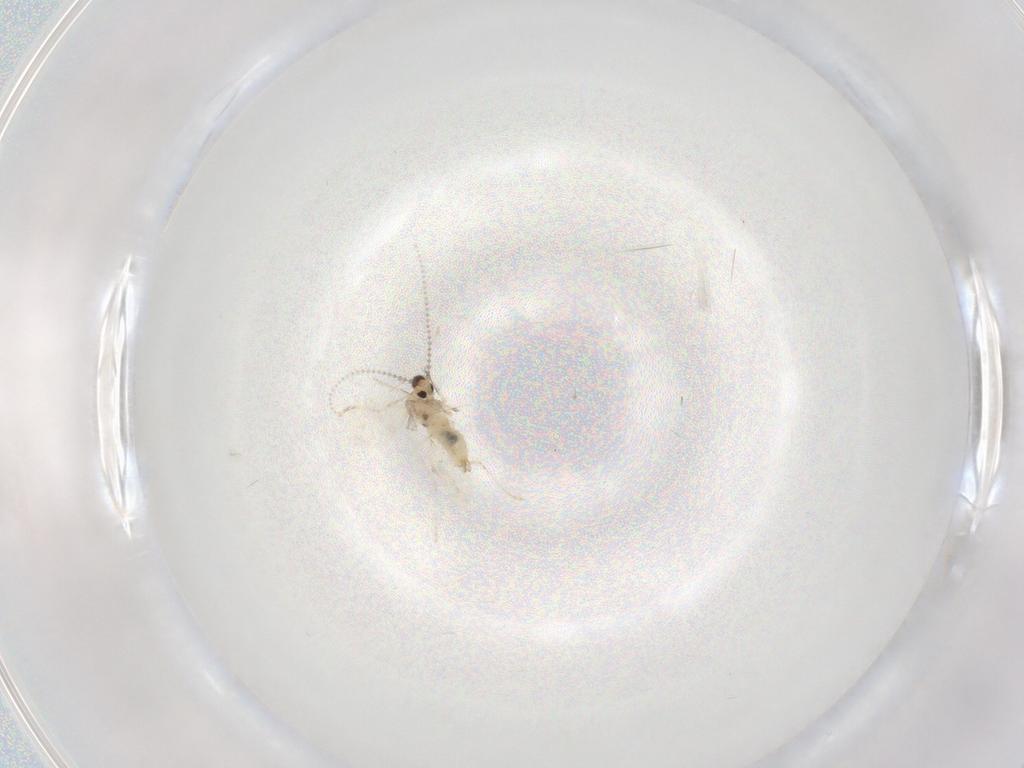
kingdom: Animalia
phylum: Arthropoda
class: Insecta
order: Diptera
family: Cecidomyiidae
